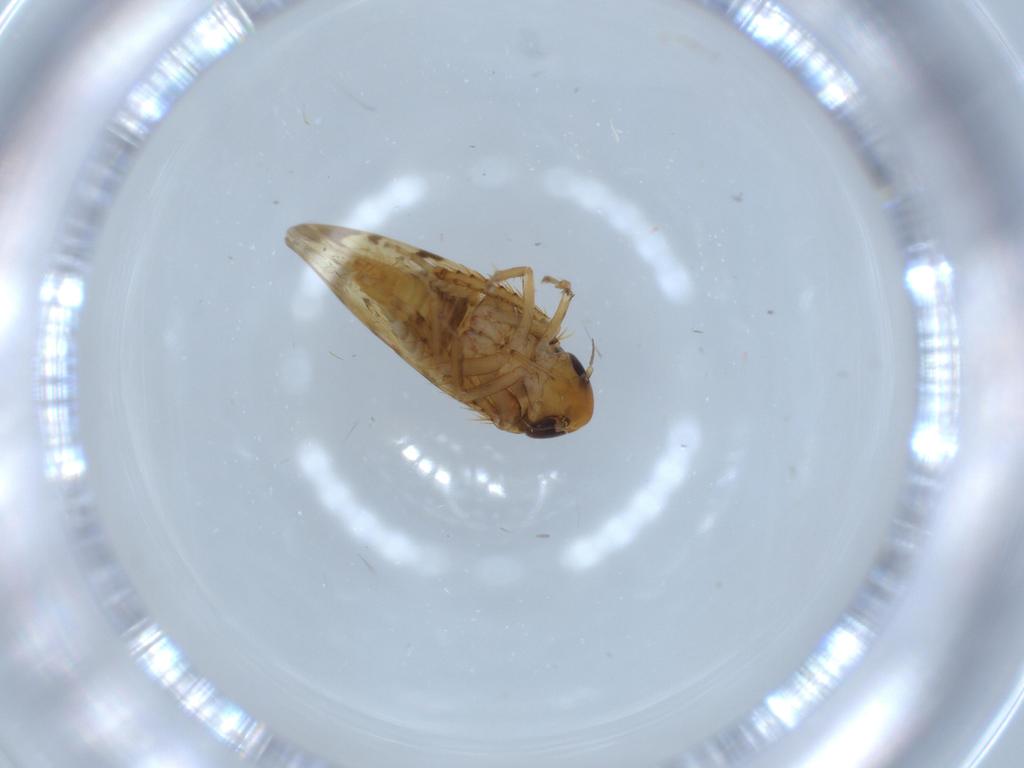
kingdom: Animalia
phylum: Arthropoda
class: Insecta
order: Hemiptera
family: Cicadellidae
